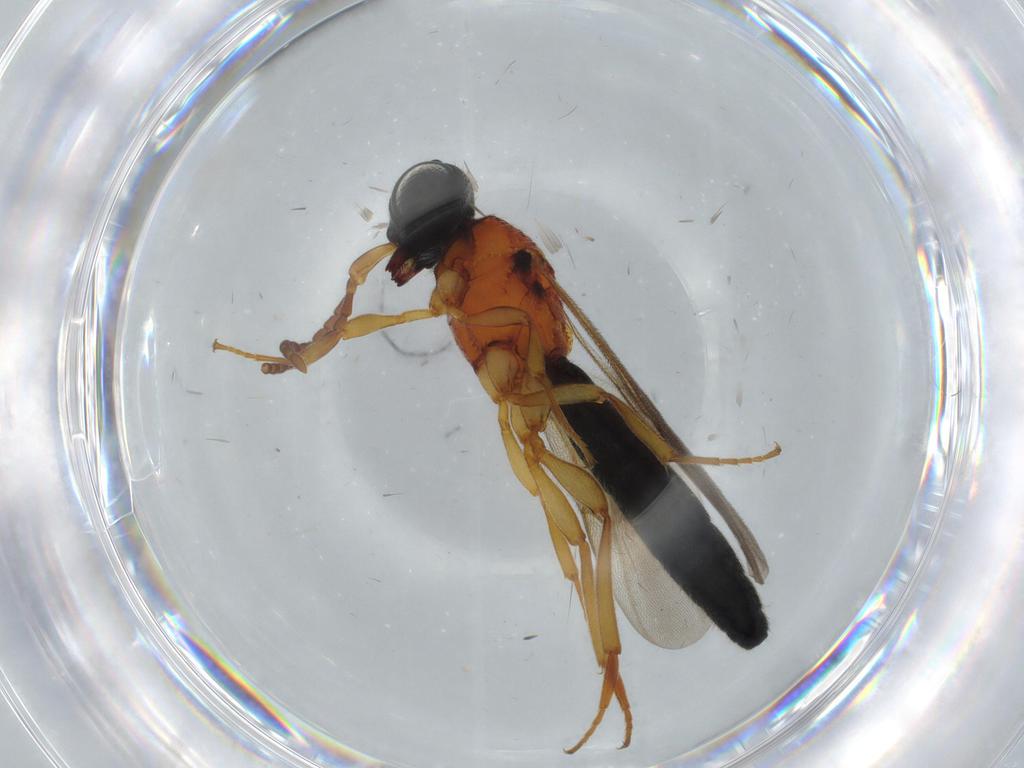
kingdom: Animalia
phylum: Arthropoda
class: Insecta
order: Hymenoptera
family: Scelionidae
